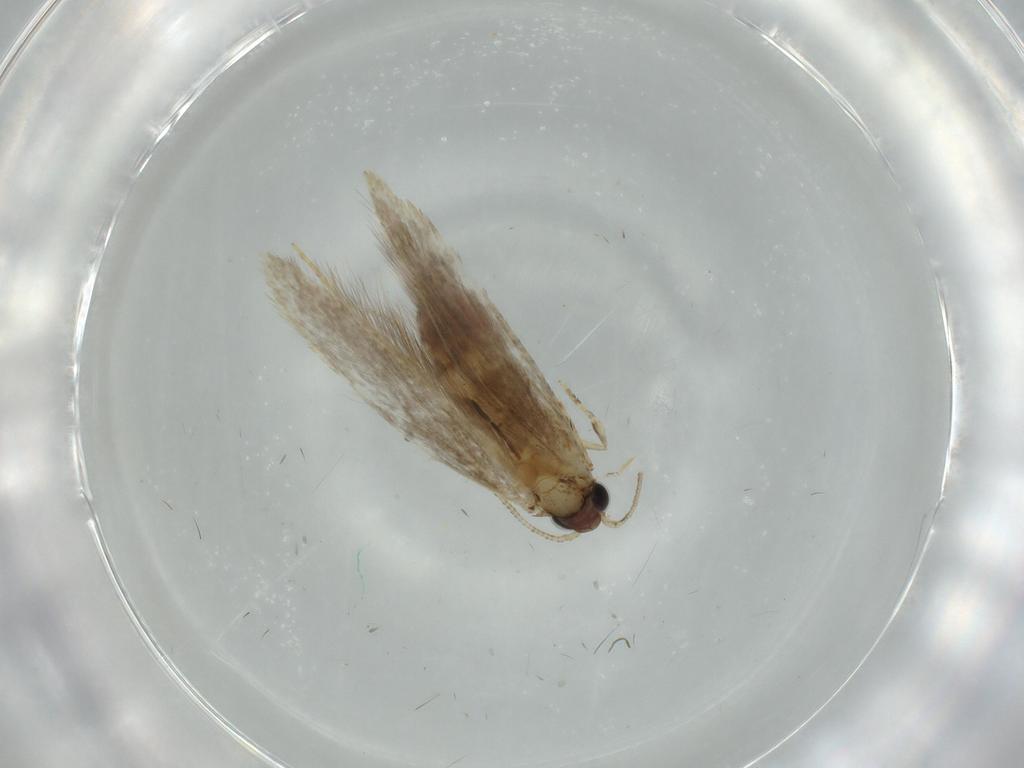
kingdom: Animalia
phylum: Arthropoda
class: Insecta
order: Lepidoptera
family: Tineidae
